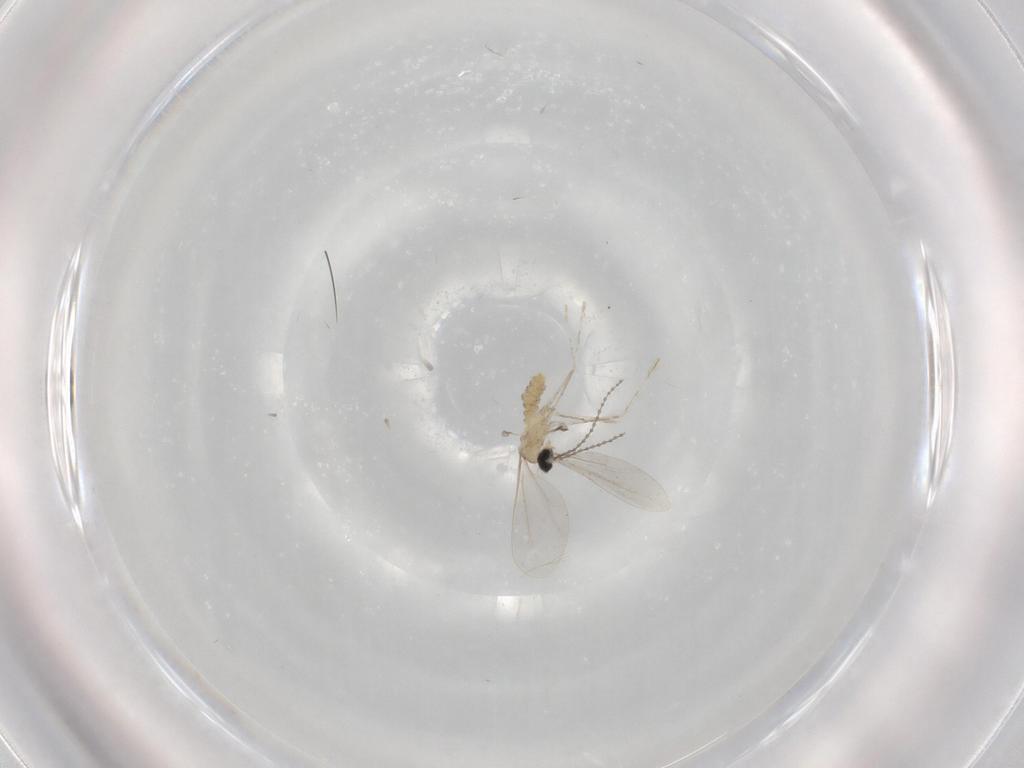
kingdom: Animalia
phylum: Arthropoda
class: Insecta
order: Diptera
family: Cecidomyiidae
